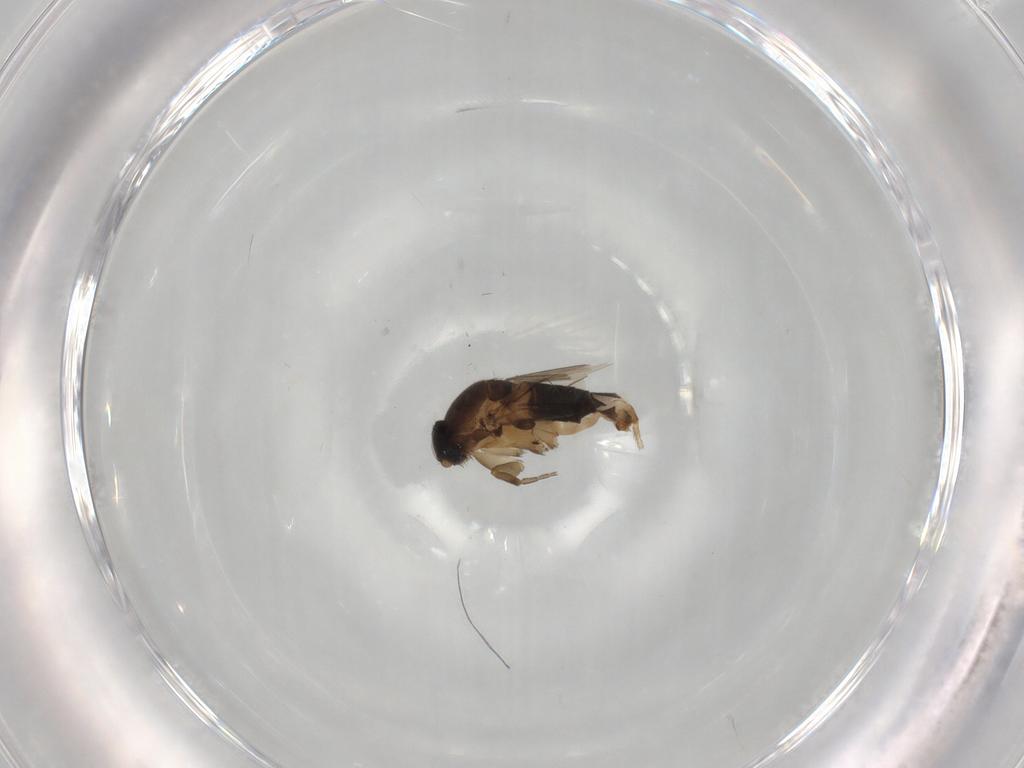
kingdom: Animalia
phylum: Arthropoda
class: Insecta
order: Diptera
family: Phoridae
